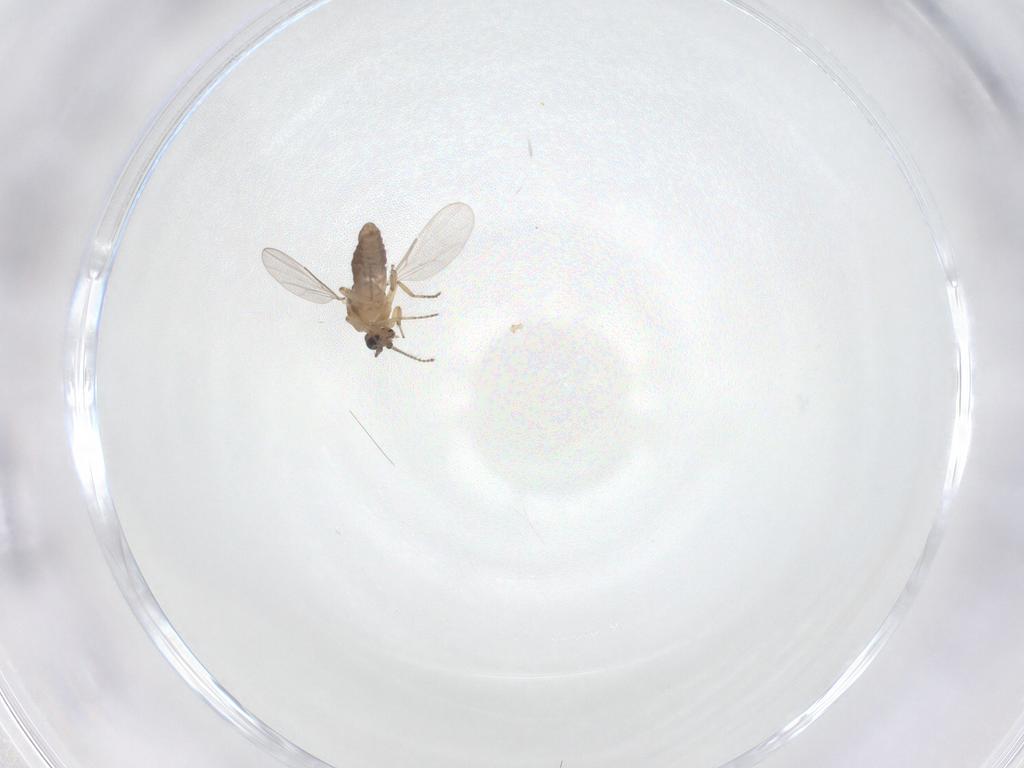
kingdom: Animalia
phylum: Arthropoda
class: Insecta
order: Diptera
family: Ceratopogonidae
